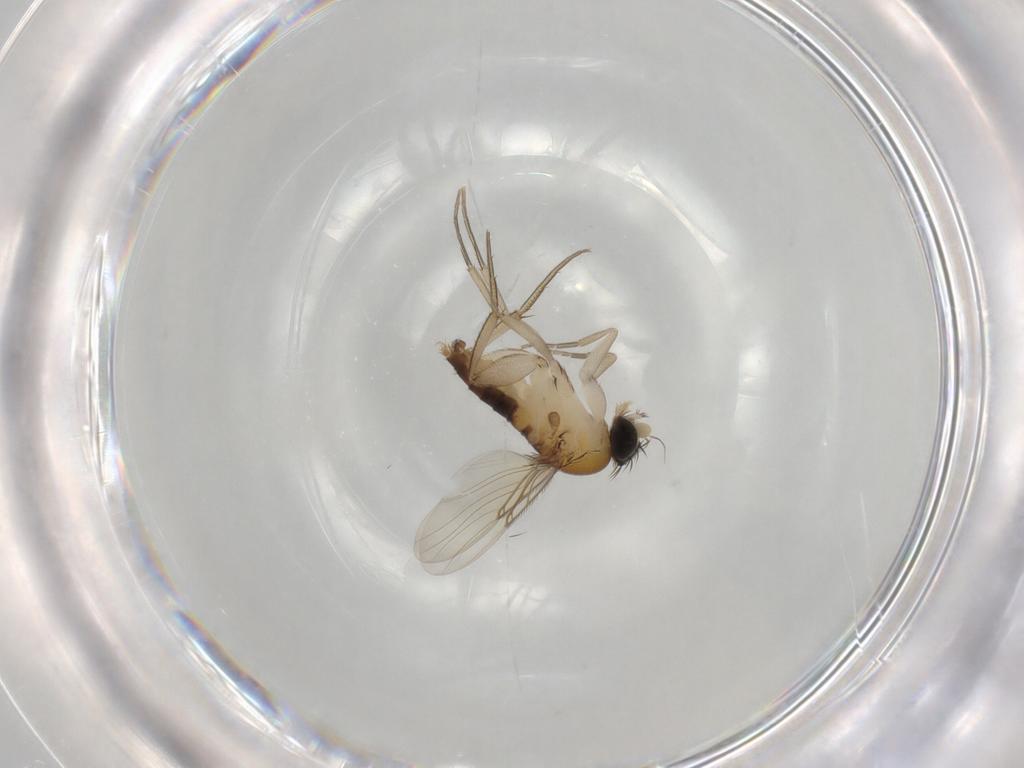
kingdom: Animalia
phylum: Arthropoda
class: Insecta
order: Diptera
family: Phoridae
